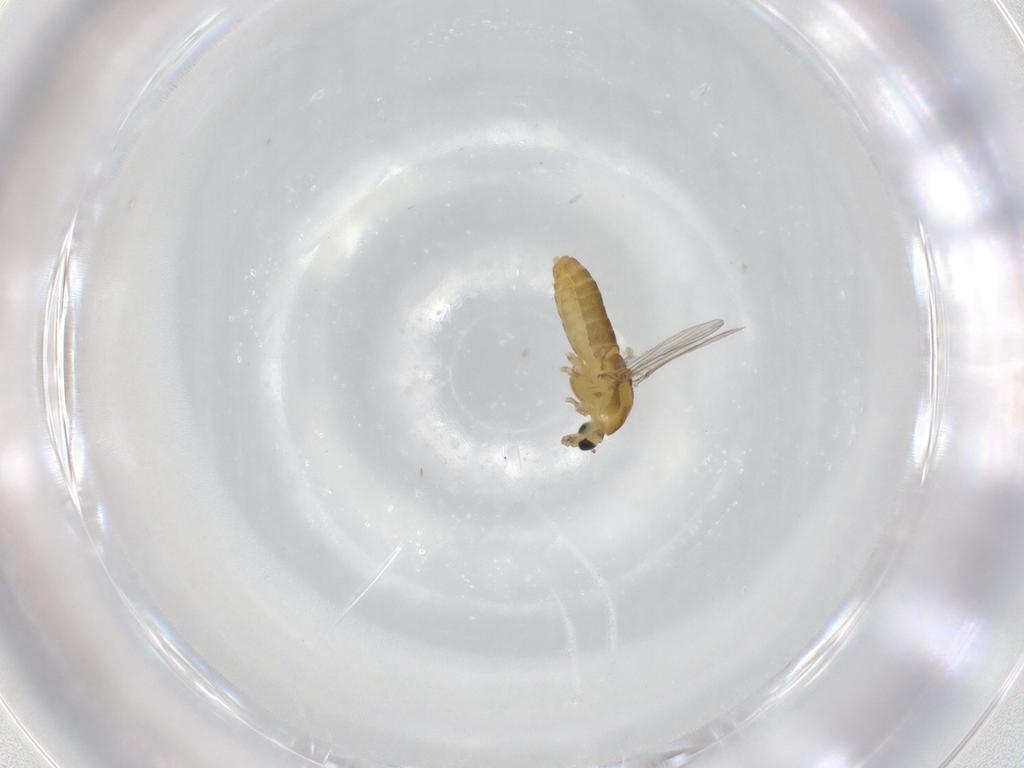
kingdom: Animalia
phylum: Arthropoda
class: Insecta
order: Diptera
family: Chironomidae
